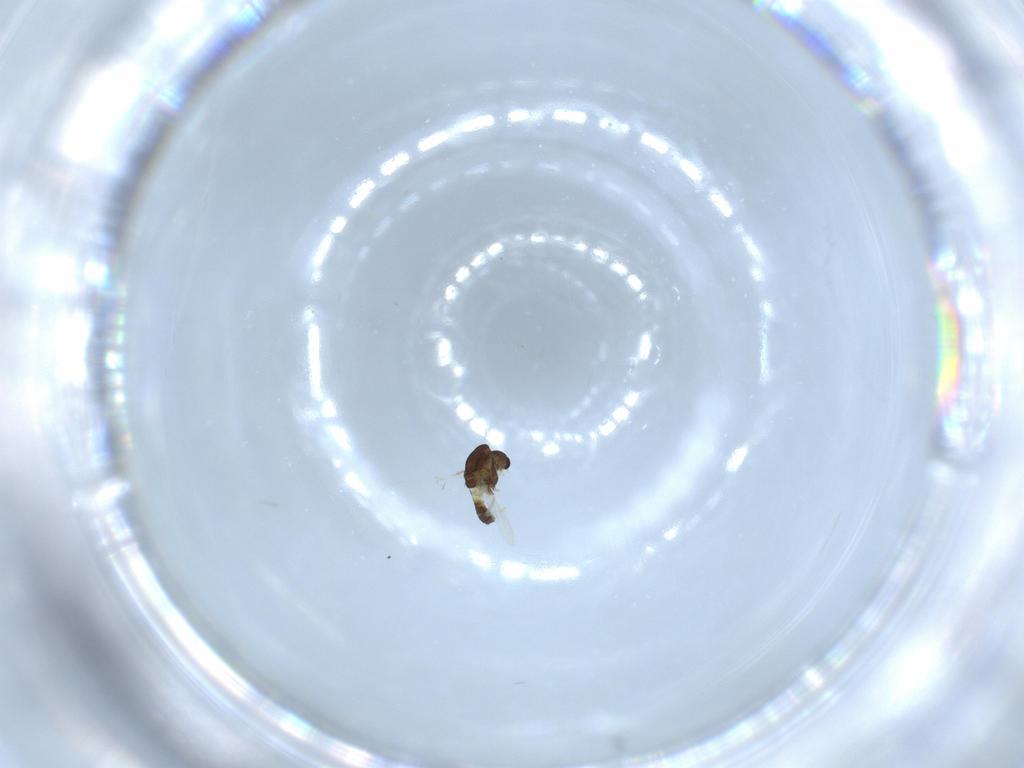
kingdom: Animalia
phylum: Arthropoda
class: Insecta
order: Diptera
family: Chironomidae
